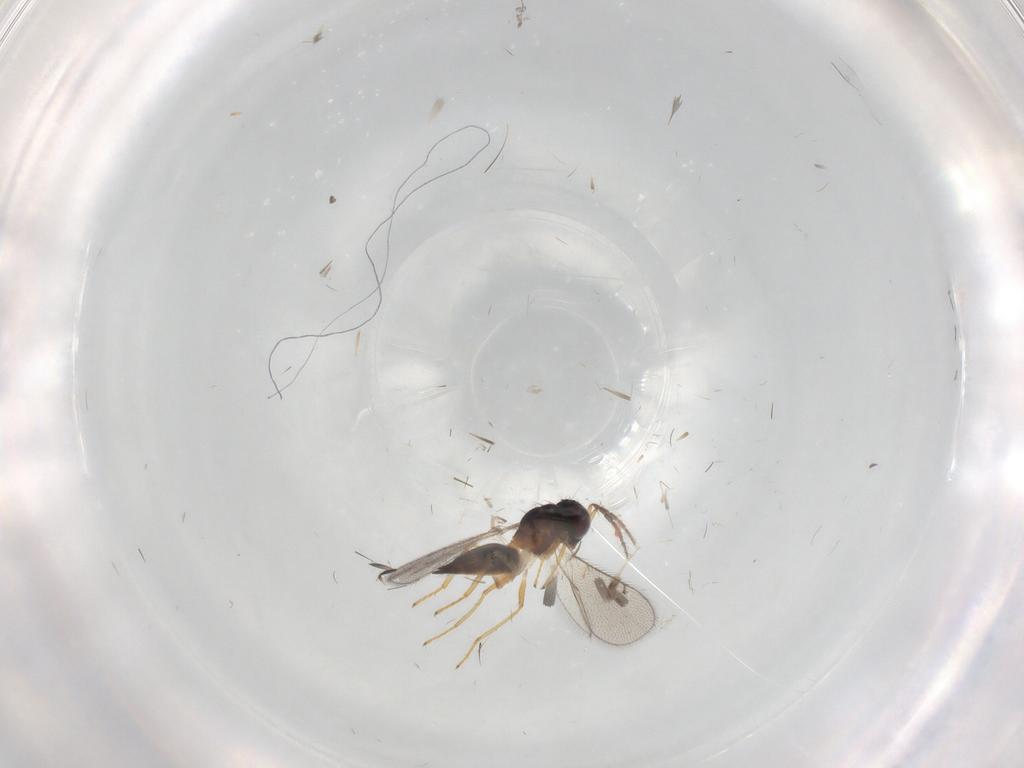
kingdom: Animalia
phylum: Arthropoda
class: Insecta
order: Hymenoptera
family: Eulophidae
